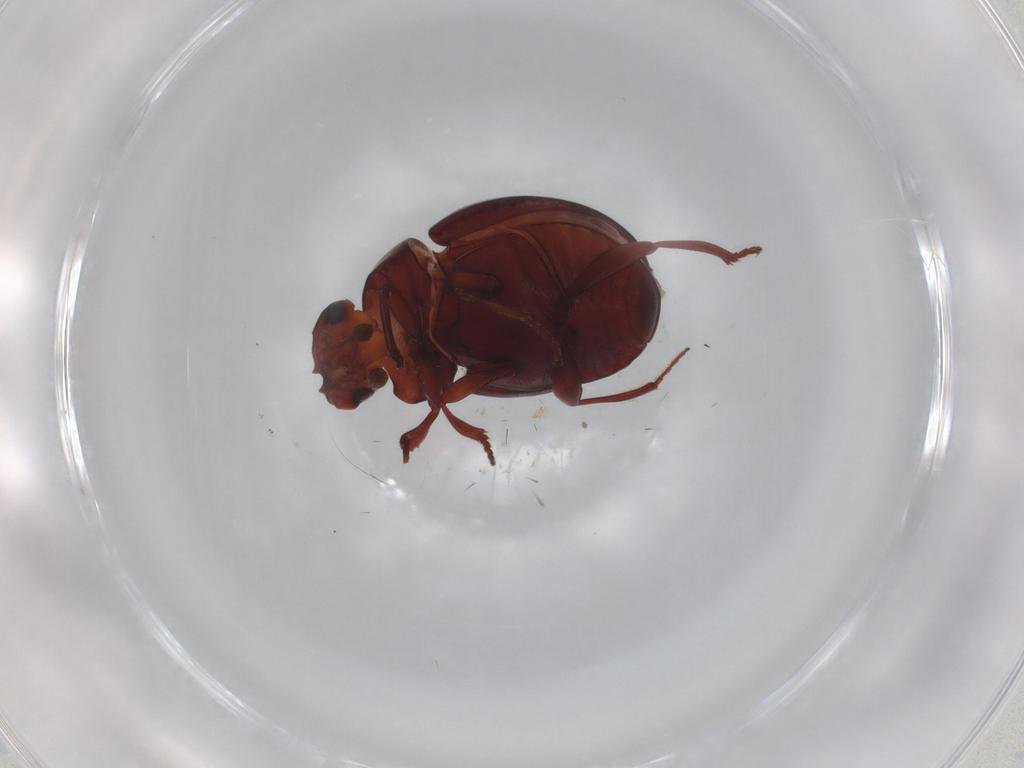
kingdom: Animalia
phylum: Arthropoda
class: Insecta
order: Coleoptera
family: Scarabaeidae
